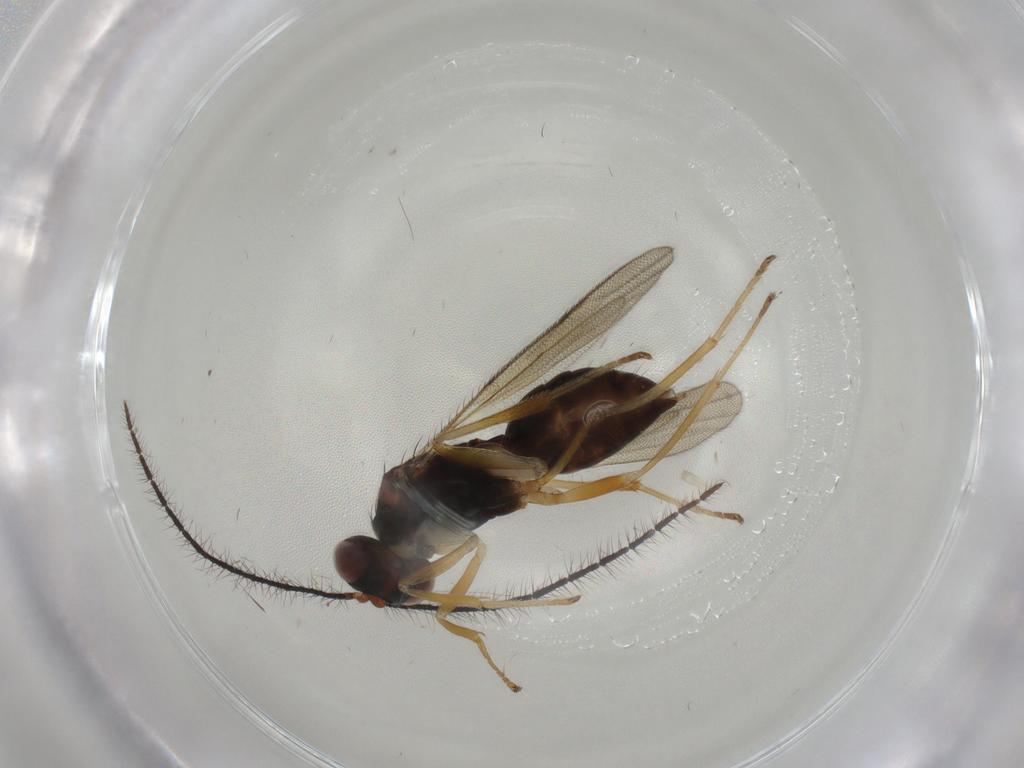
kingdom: Animalia
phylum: Arthropoda
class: Insecta
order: Hymenoptera
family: Diparidae
